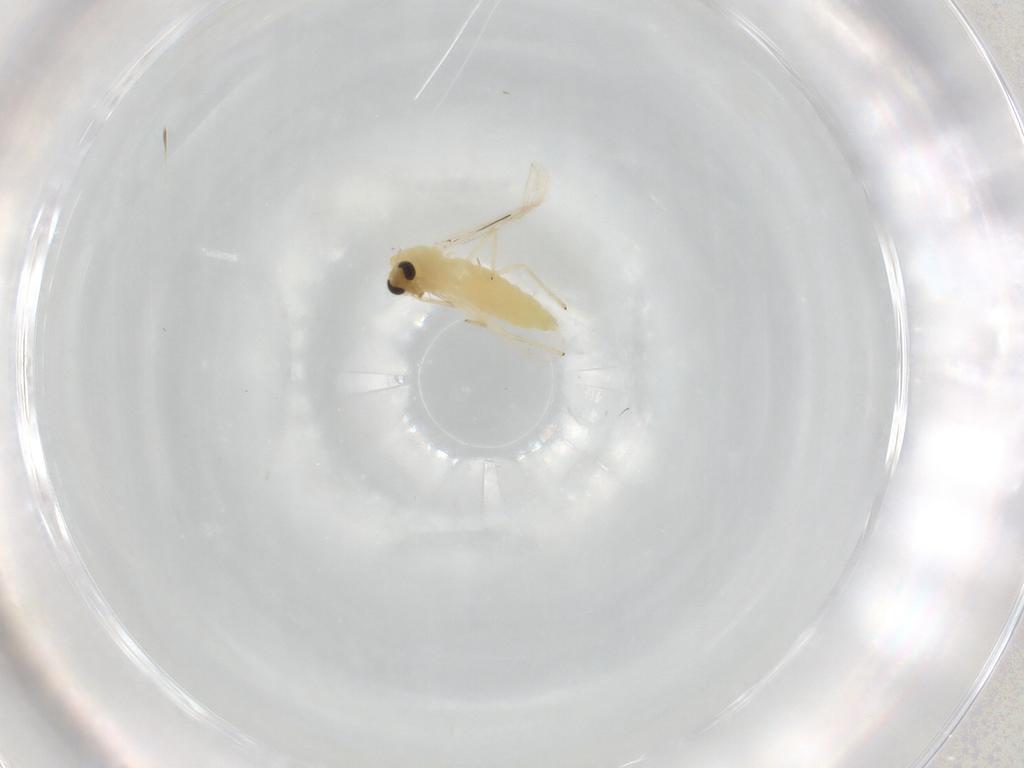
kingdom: Animalia
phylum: Arthropoda
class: Insecta
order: Diptera
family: Chironomidae
